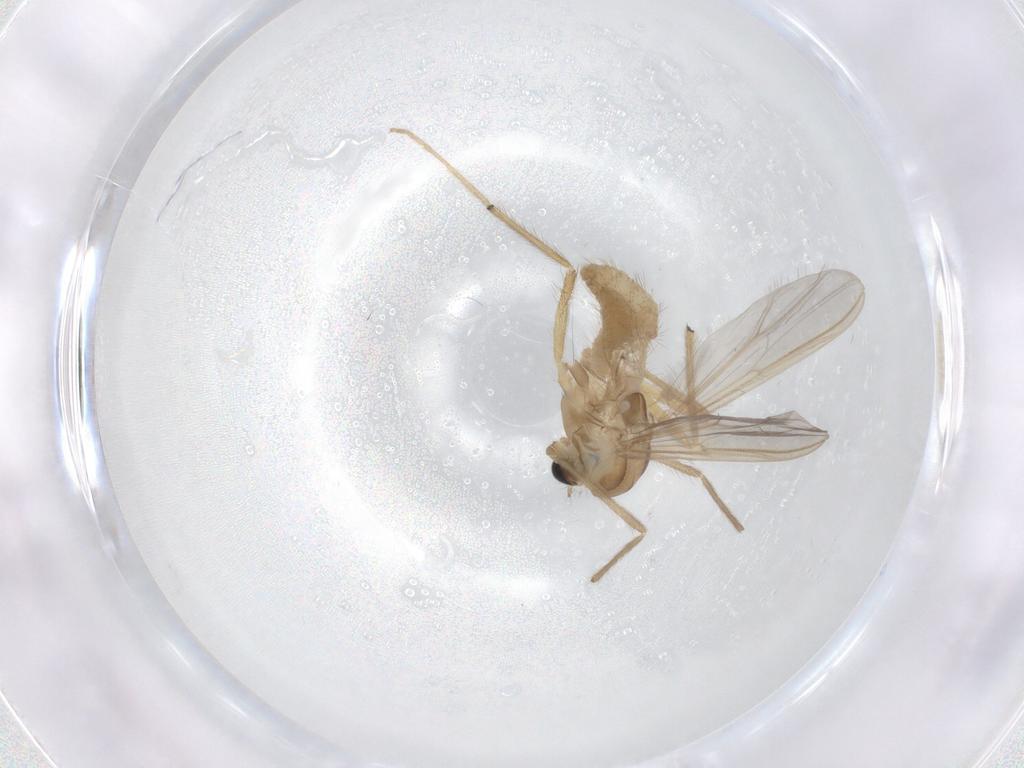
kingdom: Animalia
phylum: Arthropoda
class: Insecta
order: Diptera
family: Chironomidae
